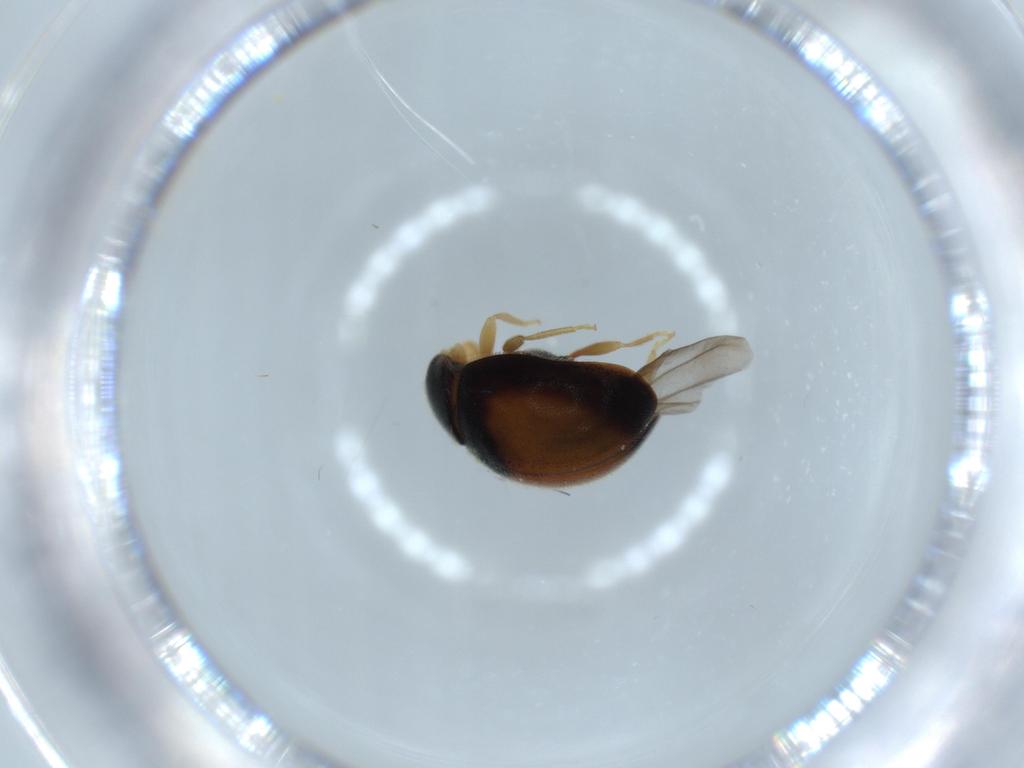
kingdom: Animalia
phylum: Arthropoda
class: Insecta
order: Coleoptera
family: Coccinellidae
